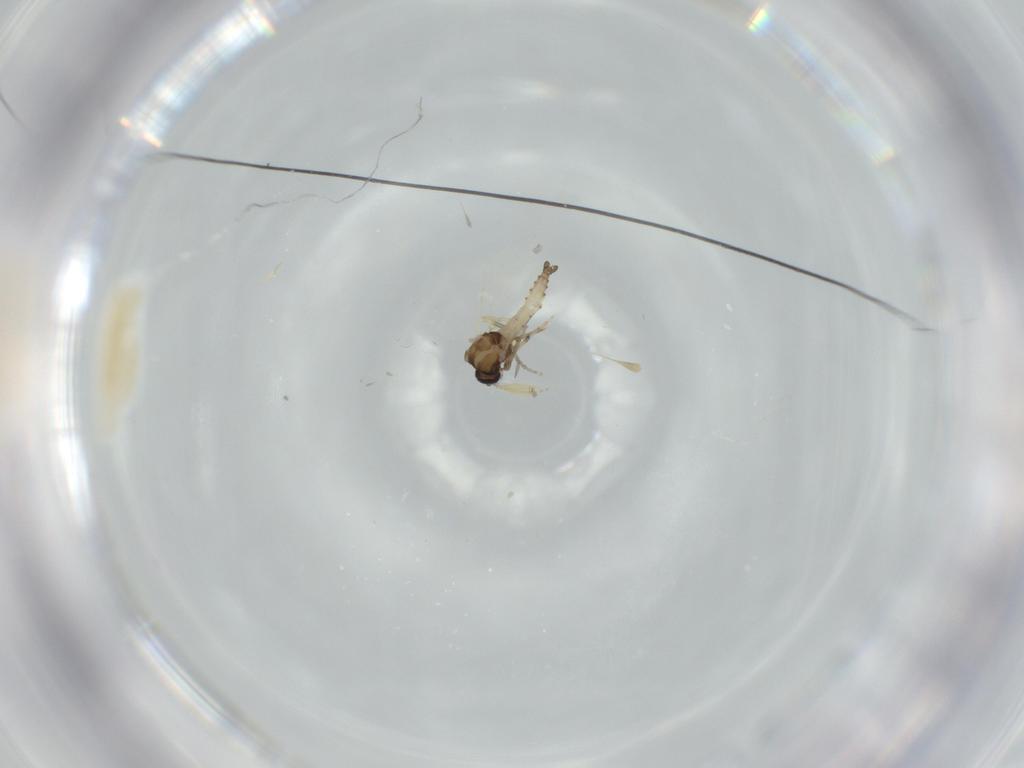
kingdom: Animalia
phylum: Arthropoda
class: Insecta
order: Diptera
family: Ceratopogonidae
